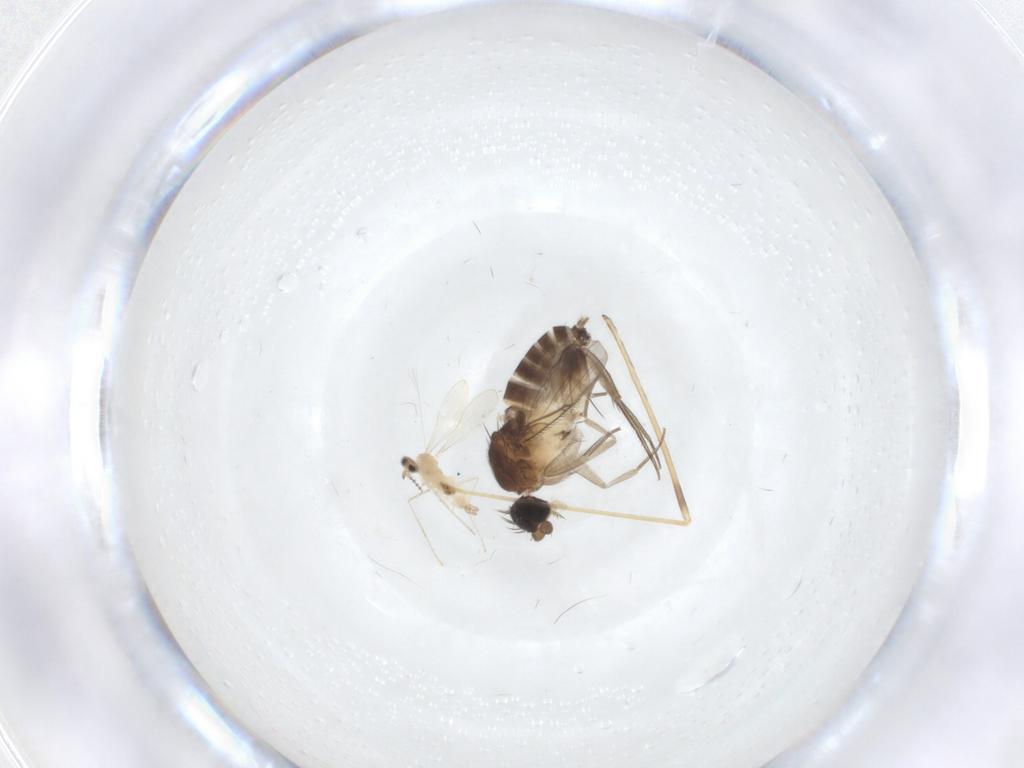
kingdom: Animalia
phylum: Arthropoda
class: Insecta
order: Diptera
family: Phoridae
